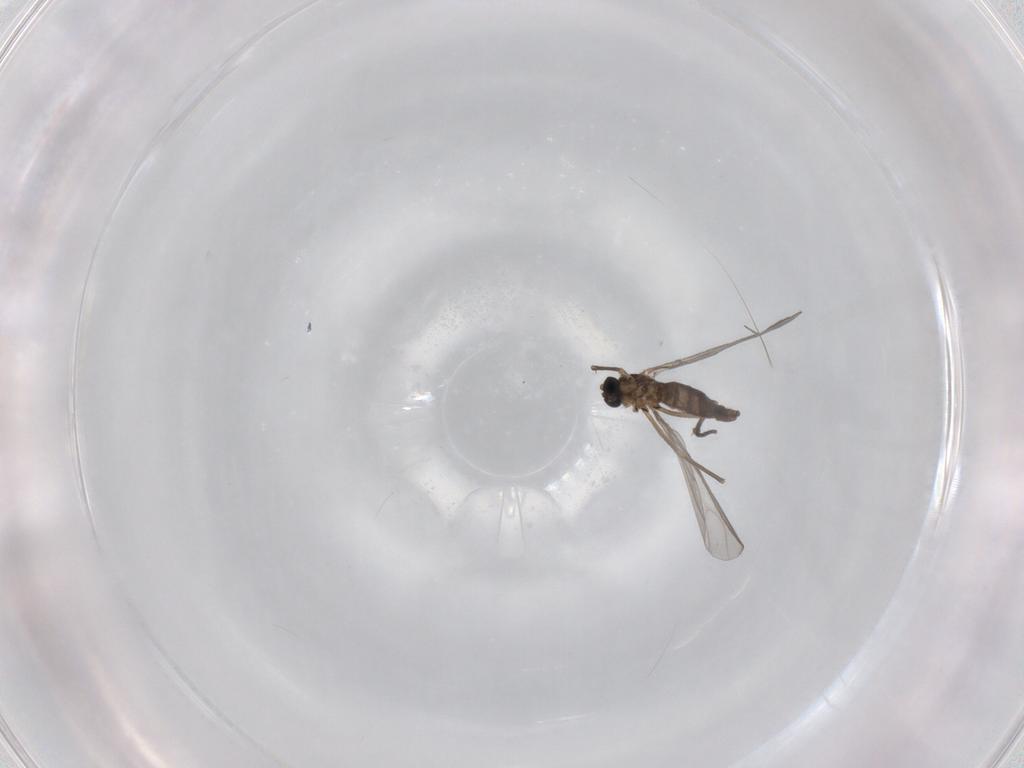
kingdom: Animalia
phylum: Arthropoda
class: Insecta
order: Diptera
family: Sciaridae
